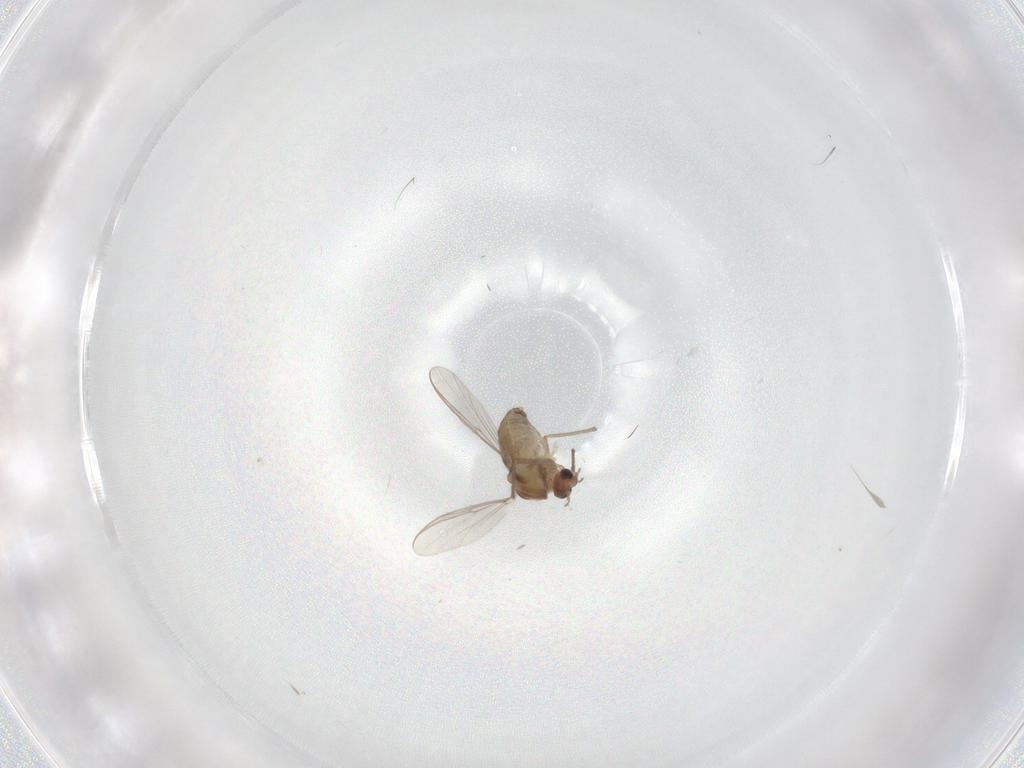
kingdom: Animalia
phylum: Arthropoda
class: Insecta
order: Diptera
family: Chironomidae
